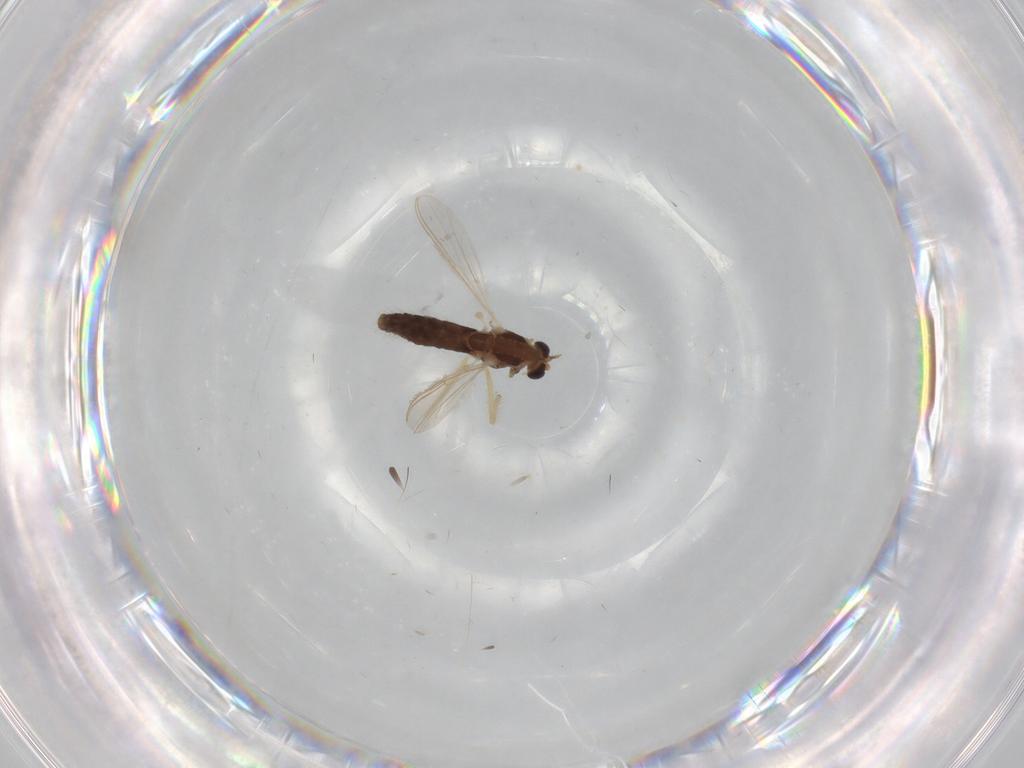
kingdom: Animalia
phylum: Arthropoda
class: Insecta
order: Diptera
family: Chironomidae
